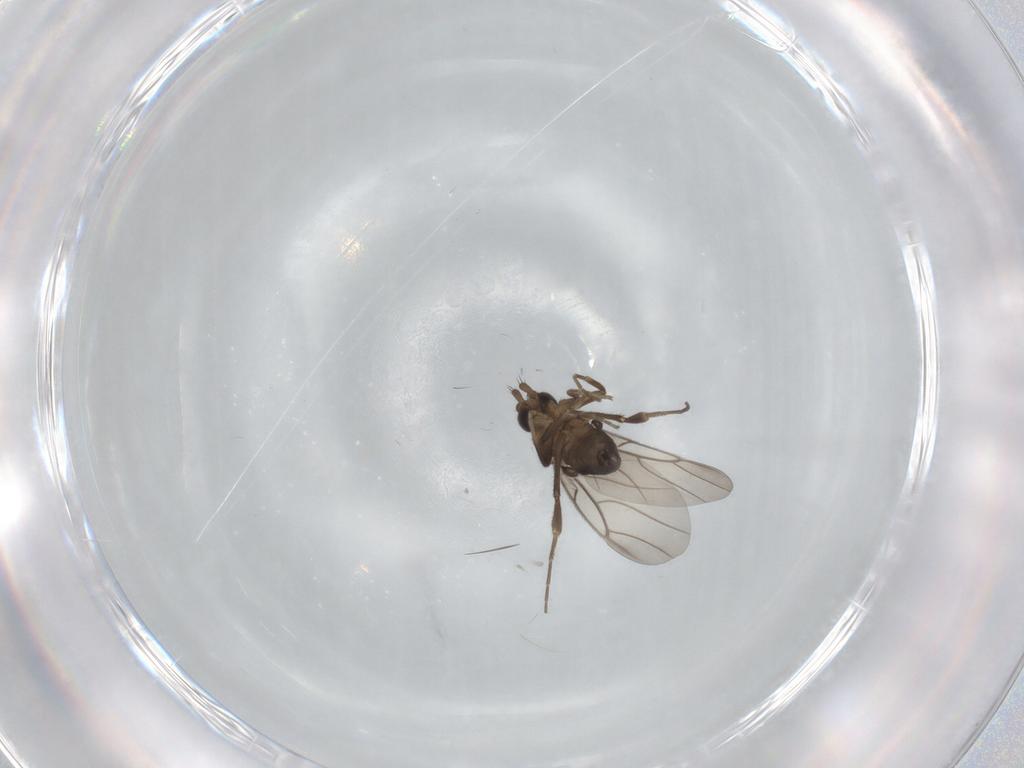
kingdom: Animalia
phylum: Arthropoda
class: Insecta
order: Diptera
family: Phoridae
